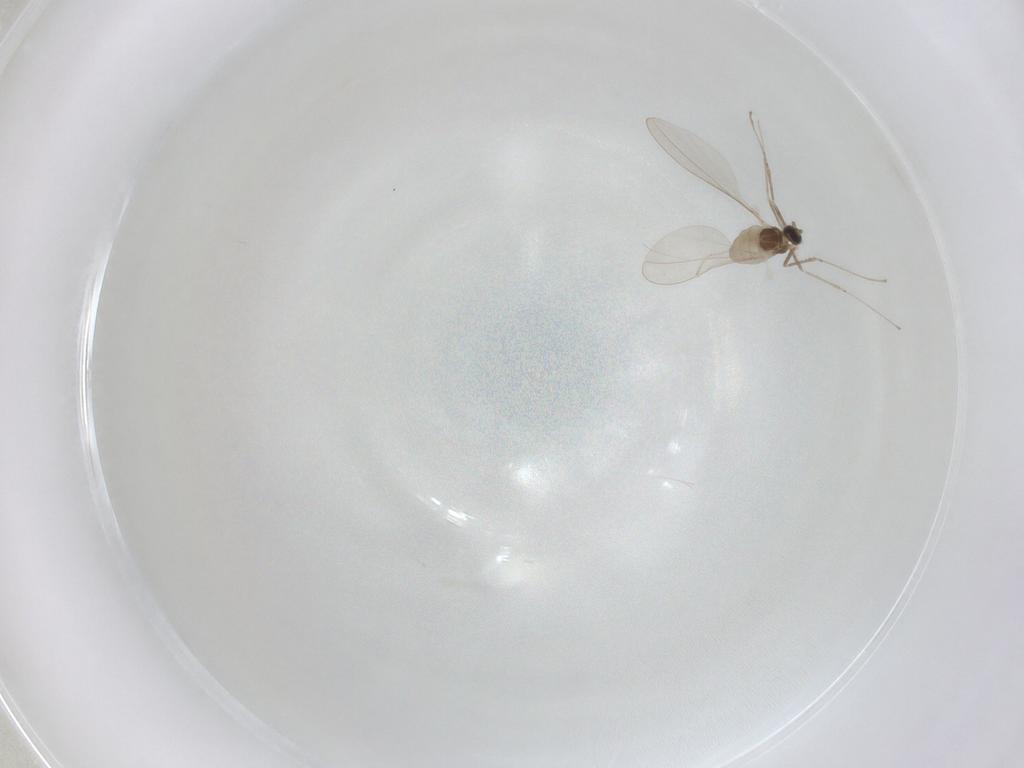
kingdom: Animalia
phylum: Arthropoda
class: Insecta
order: Diptera
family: Cecidomyiidae
